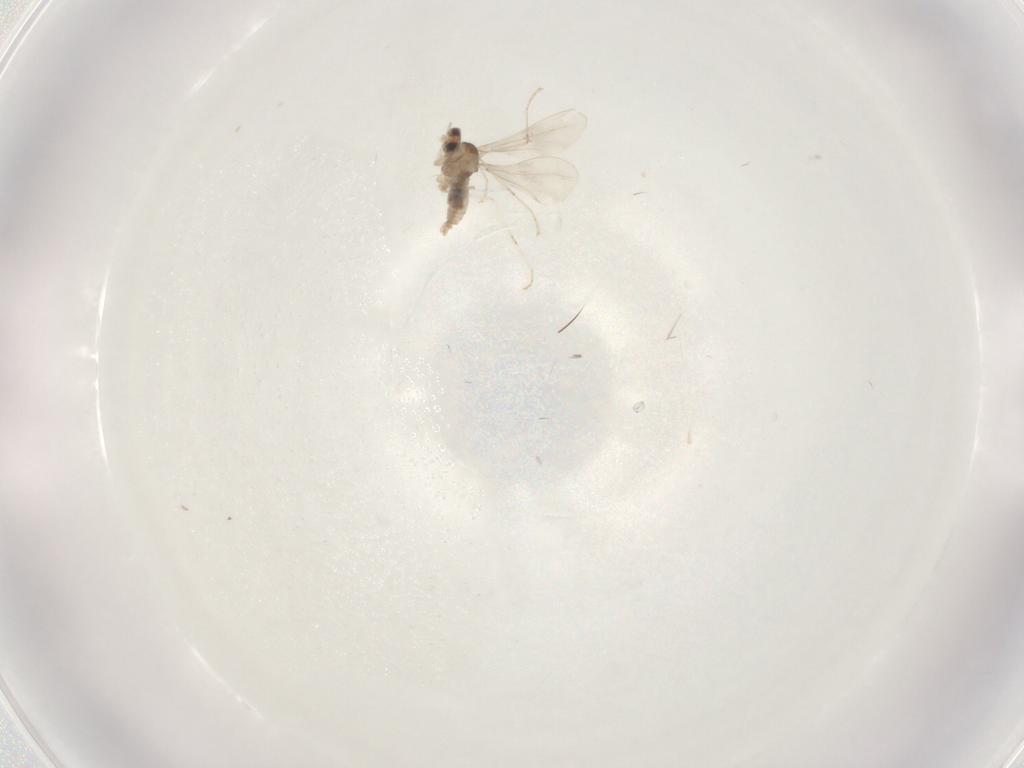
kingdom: Animalia
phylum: Arthropoda
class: Insecta
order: Diptera
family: Cecidomyiidae
